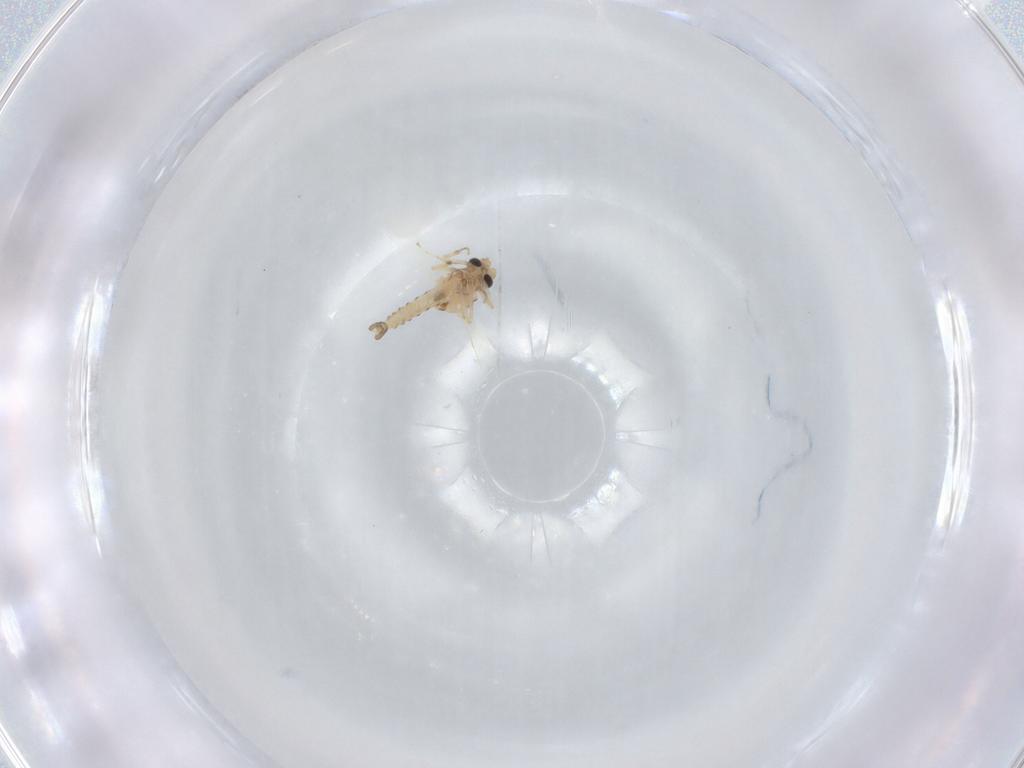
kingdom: Animalia
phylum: Arthropoda
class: Insecta
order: Diptera
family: Ceratopogonidae
